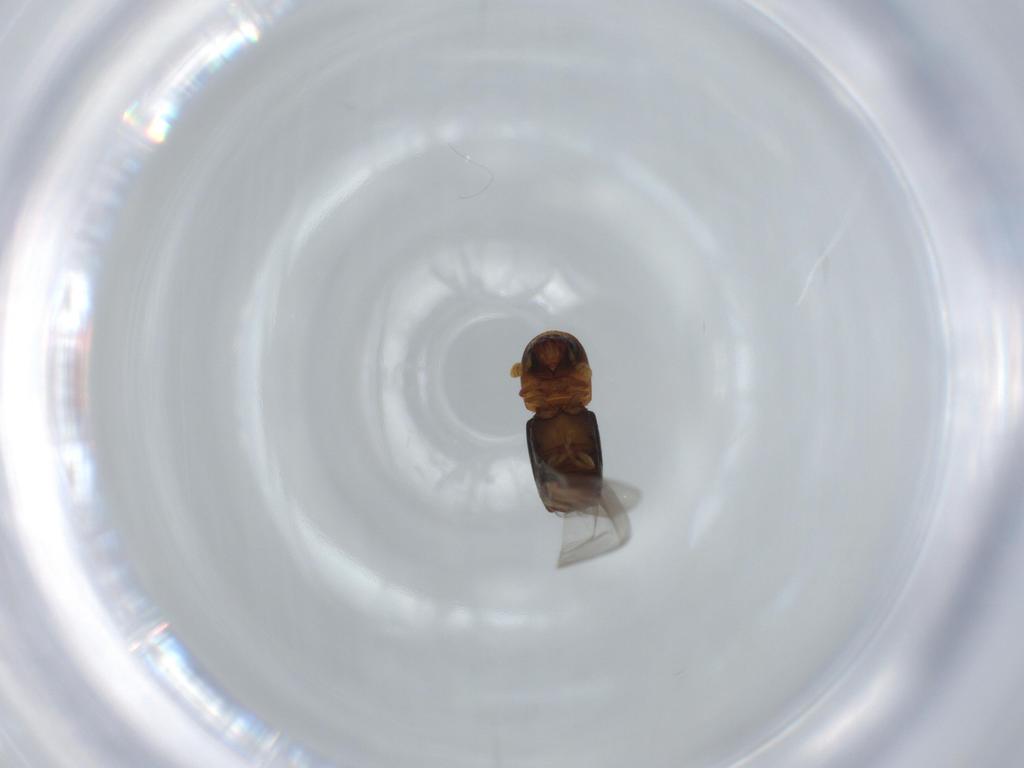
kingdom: Animalia
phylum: Arthropoda
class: Insecta
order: Coleoptera
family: Curculionidae
